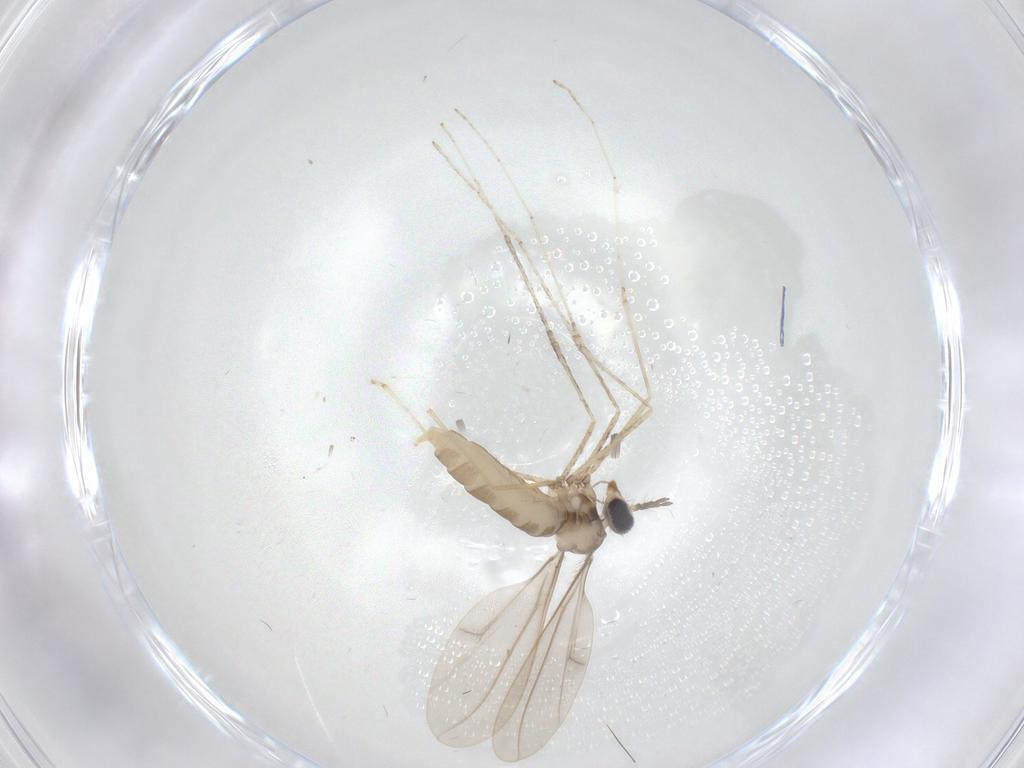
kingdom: Animalia
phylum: Arthropoda
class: Insecta
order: Diptera
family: Cecidomyiidae
